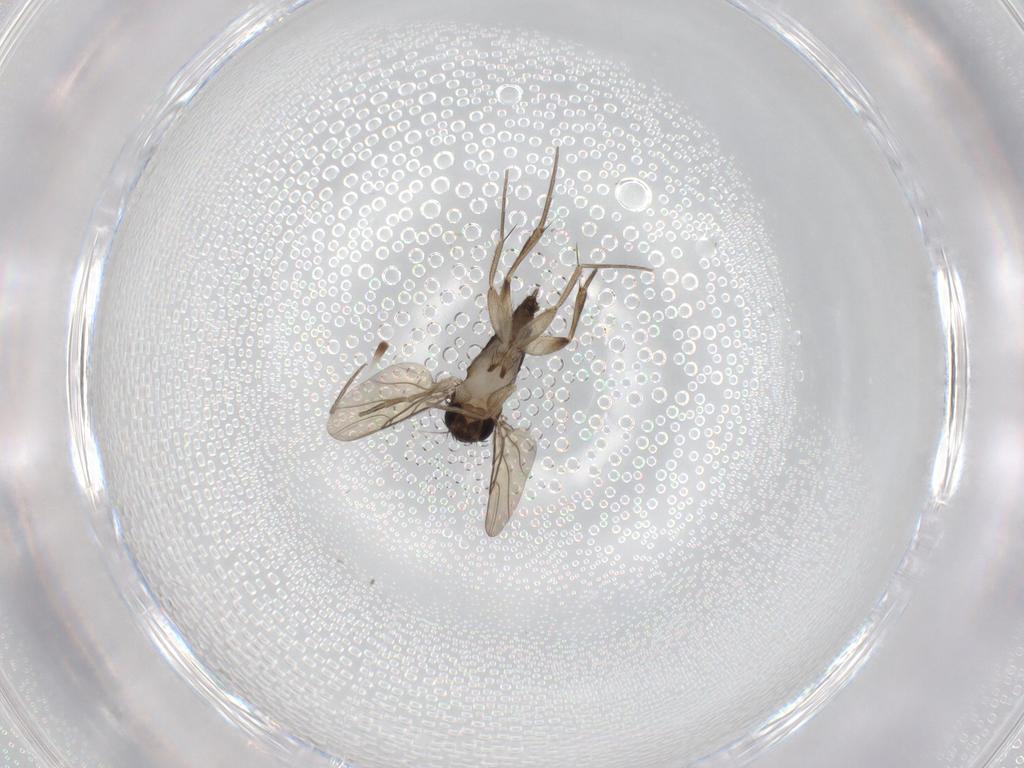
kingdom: Animalia
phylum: Arthropoda
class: Insecta
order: Diptera
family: Phoridae
